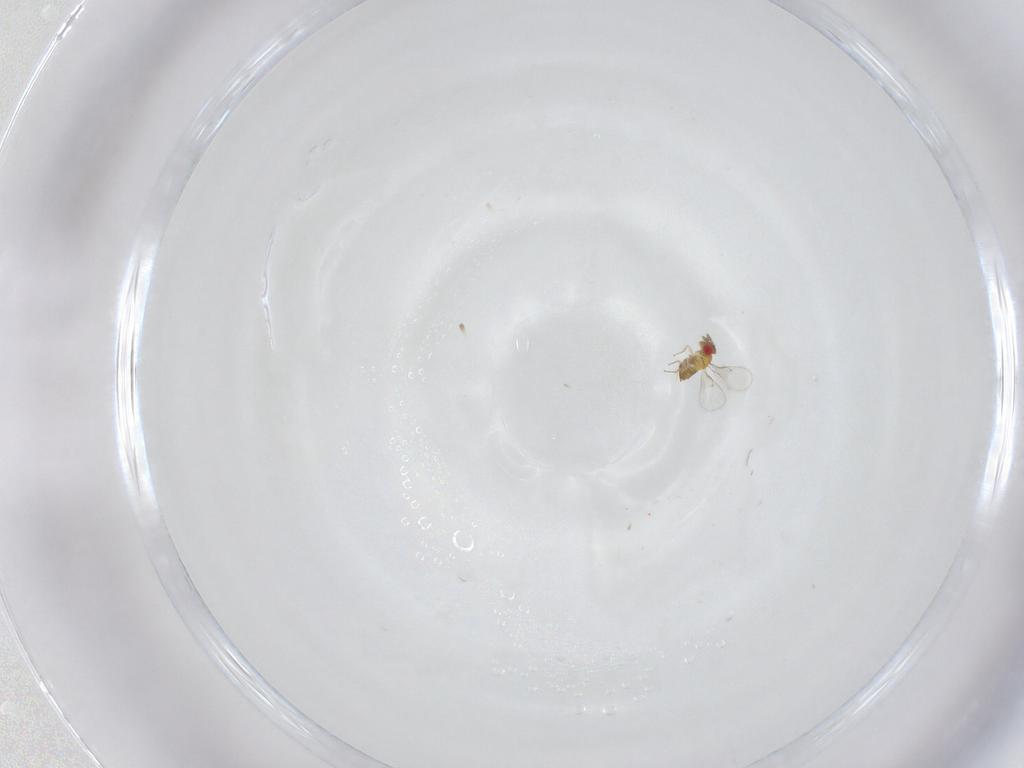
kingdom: Animalia
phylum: Arthropoda
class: Insecta
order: Hymenoptera
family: Trichogrammatidae
